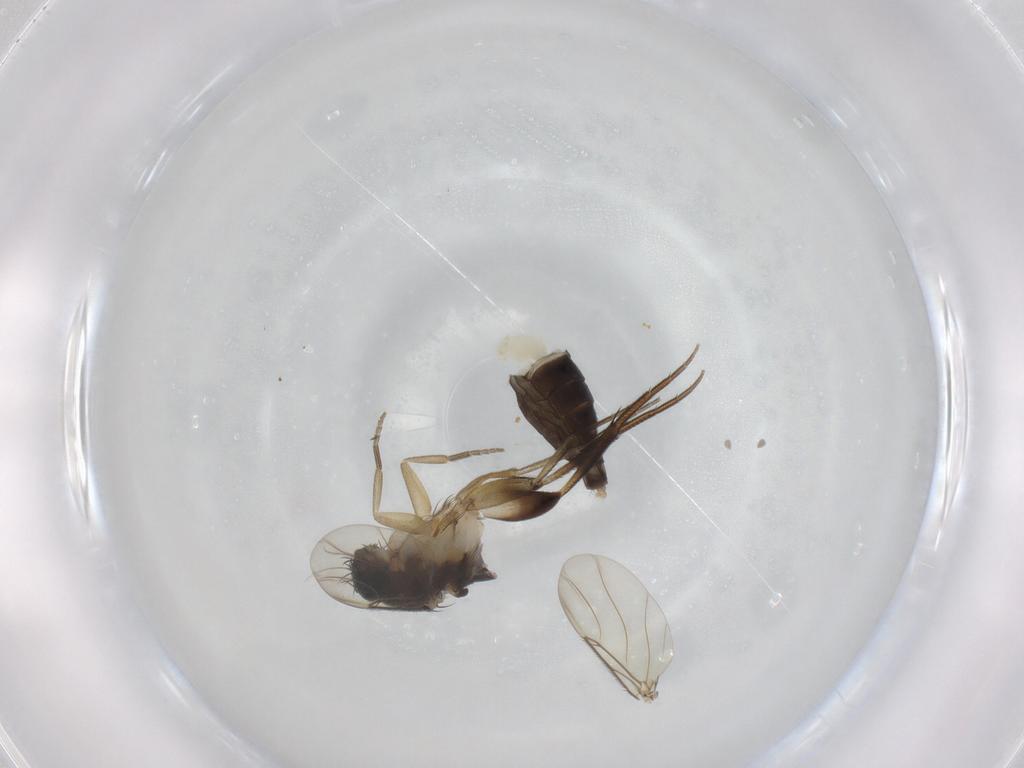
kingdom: Animalia
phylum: Arthropoda
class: Insecta
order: Diptera
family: Phoridae
